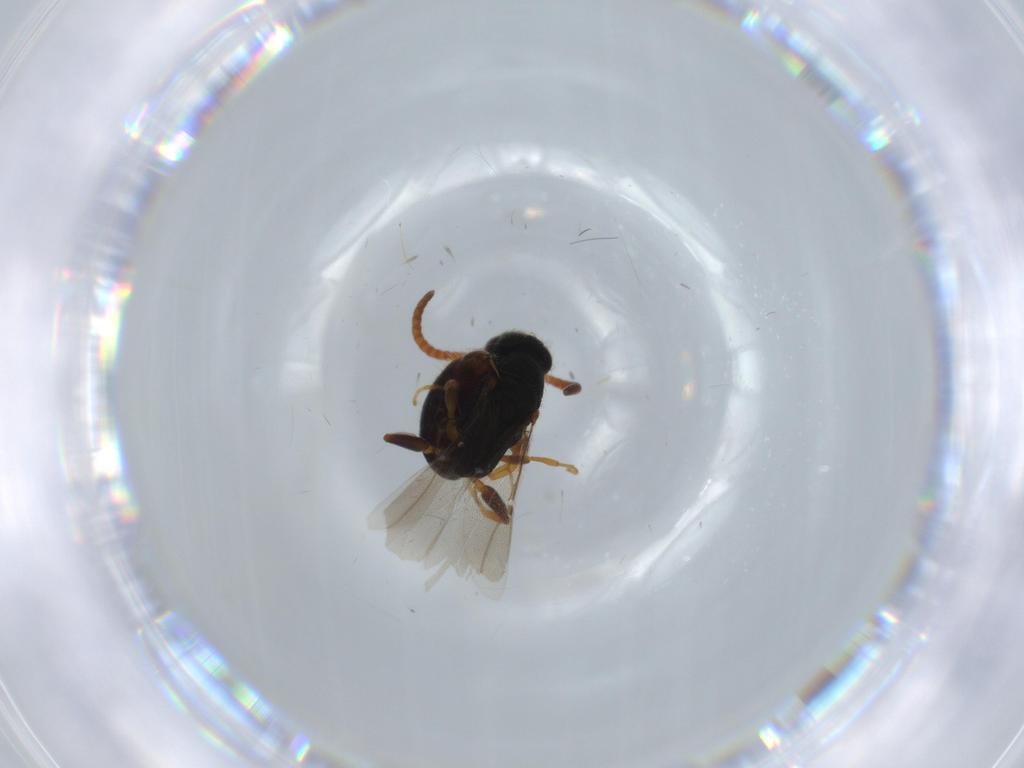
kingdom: Animalia
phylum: Arthropoda
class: Insecta
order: Hymenoptera
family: Bethylidae
